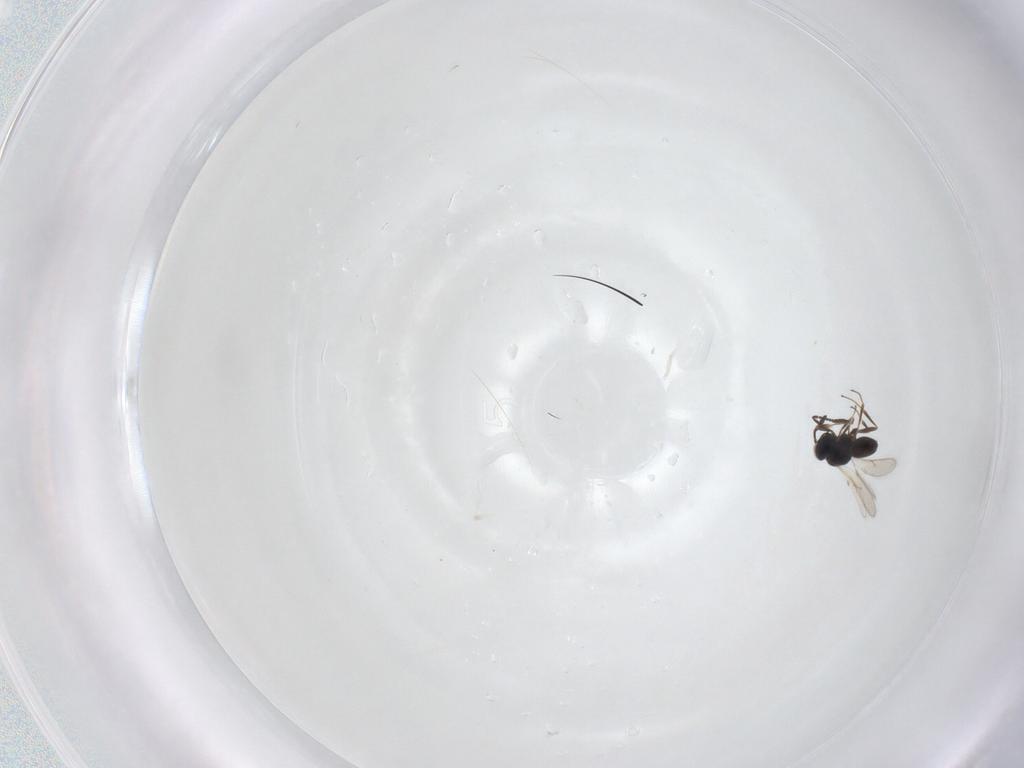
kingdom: Animalia
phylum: Arthropoda
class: Insecta
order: Hymenoptera
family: Scelionidae
